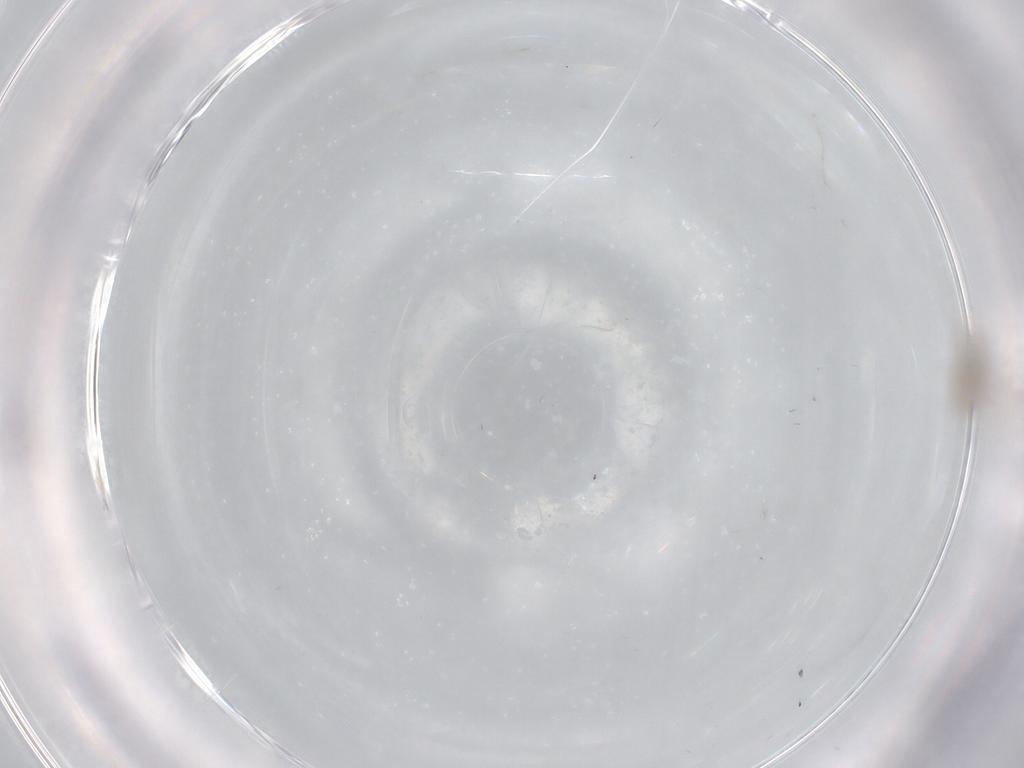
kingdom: Animalia
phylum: Arthropoda
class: Insecta
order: Diptera
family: Cecidomyiidae
